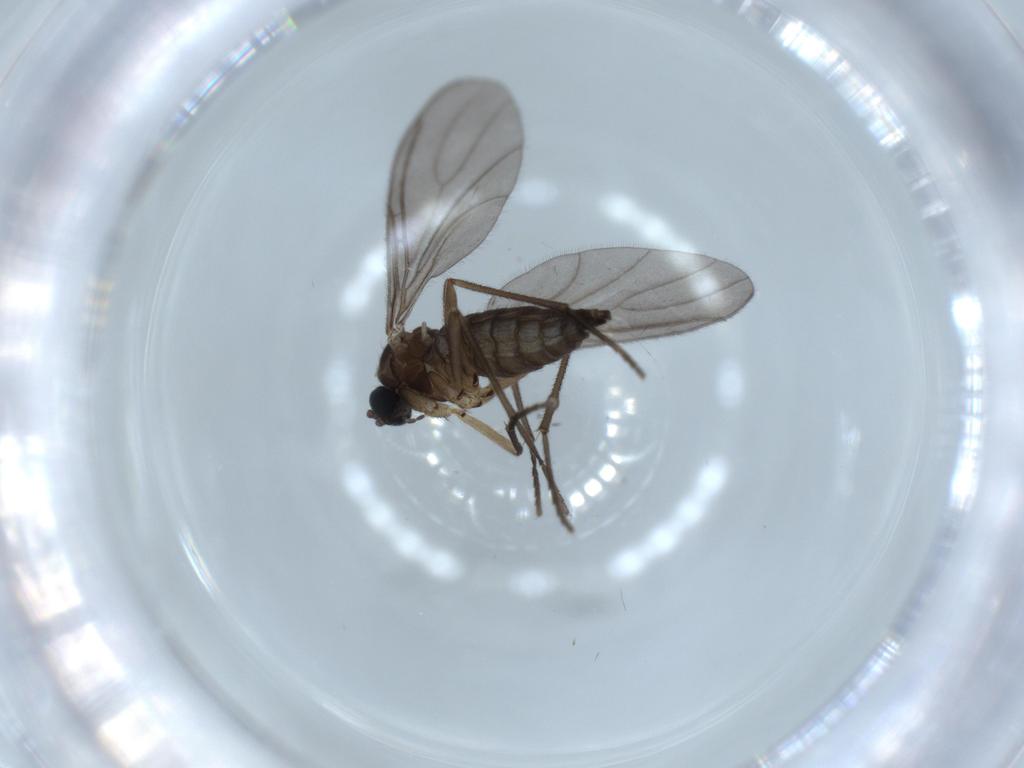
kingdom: Animalia
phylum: Arthropoda
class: Insecta
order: Diptera
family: Sciaridae
